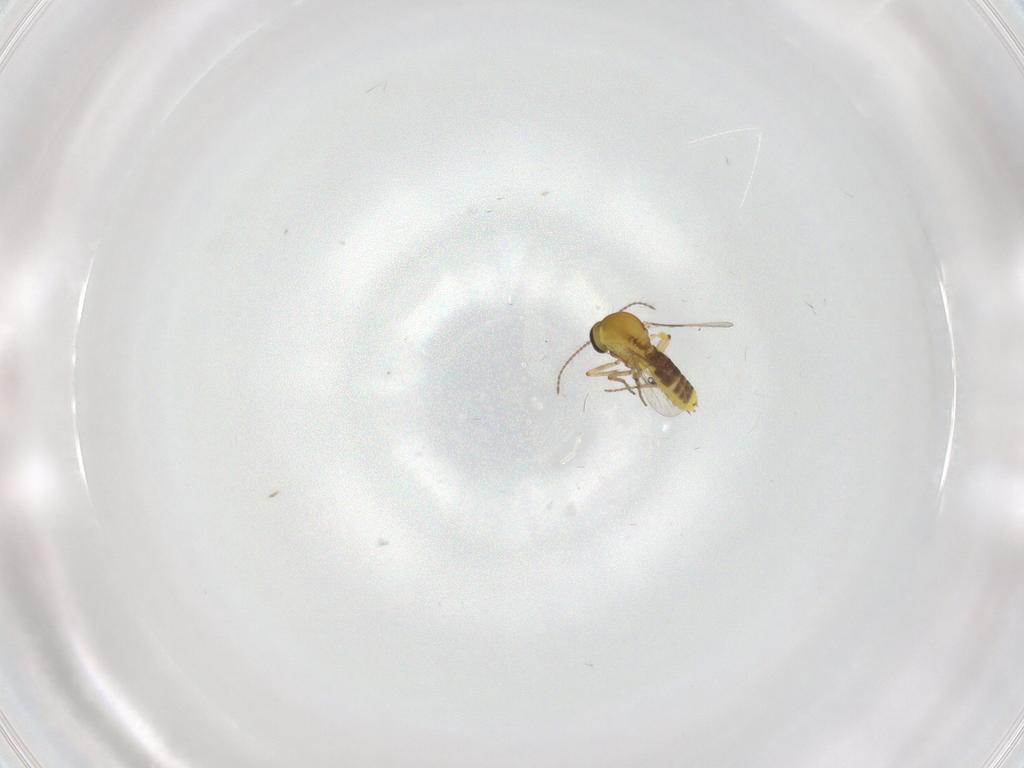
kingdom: Animalia
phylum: Arthropoda
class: Insecta
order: Diptera
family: Ceratopogonidae
